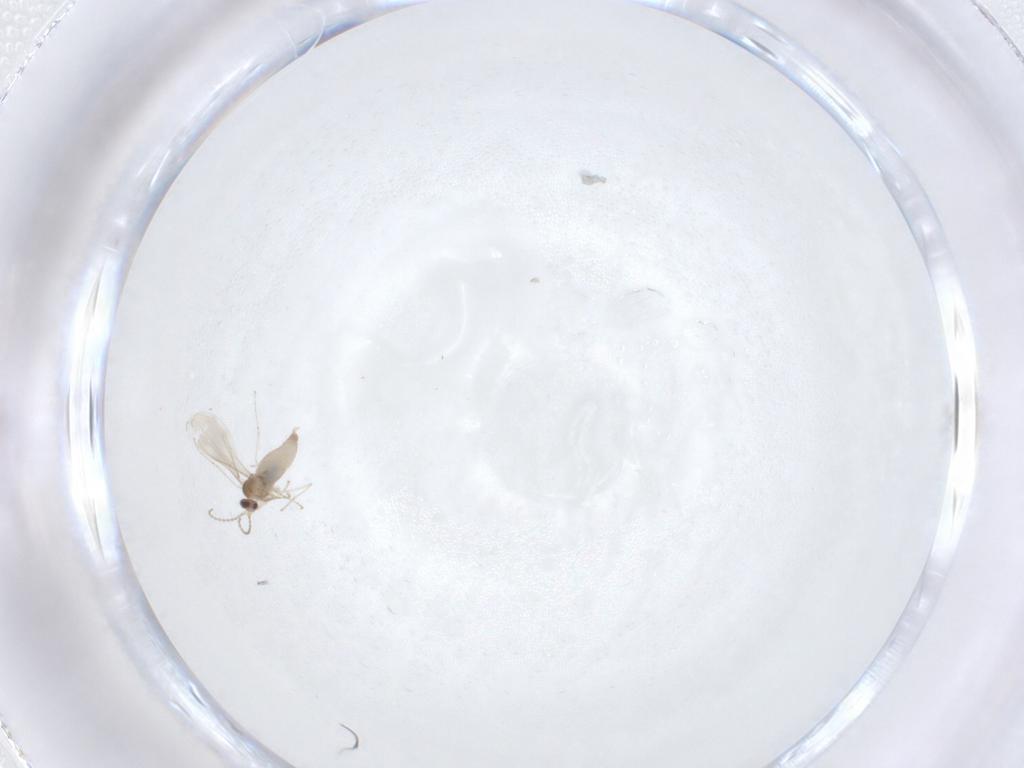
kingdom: Animalia
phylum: Arthropoda
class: Insecta
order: Diptera
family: Cecidomyiidae
